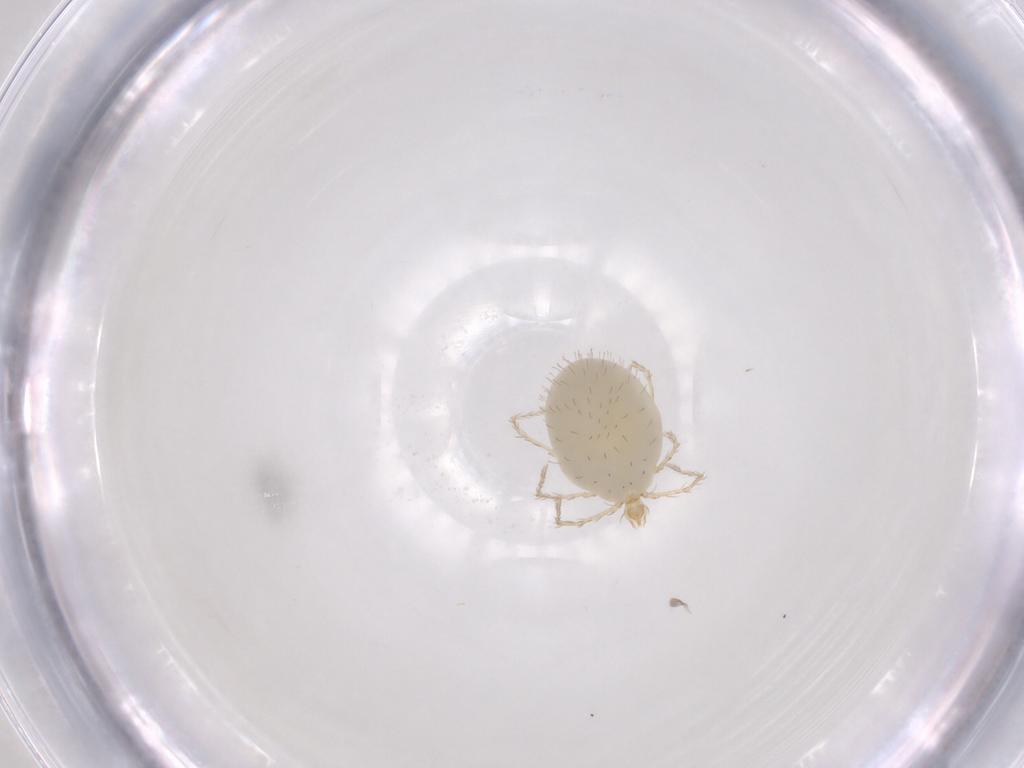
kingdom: Animalia
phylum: Arthropoda
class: Arachnida
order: Trombidiformes
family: Erythraeidae
